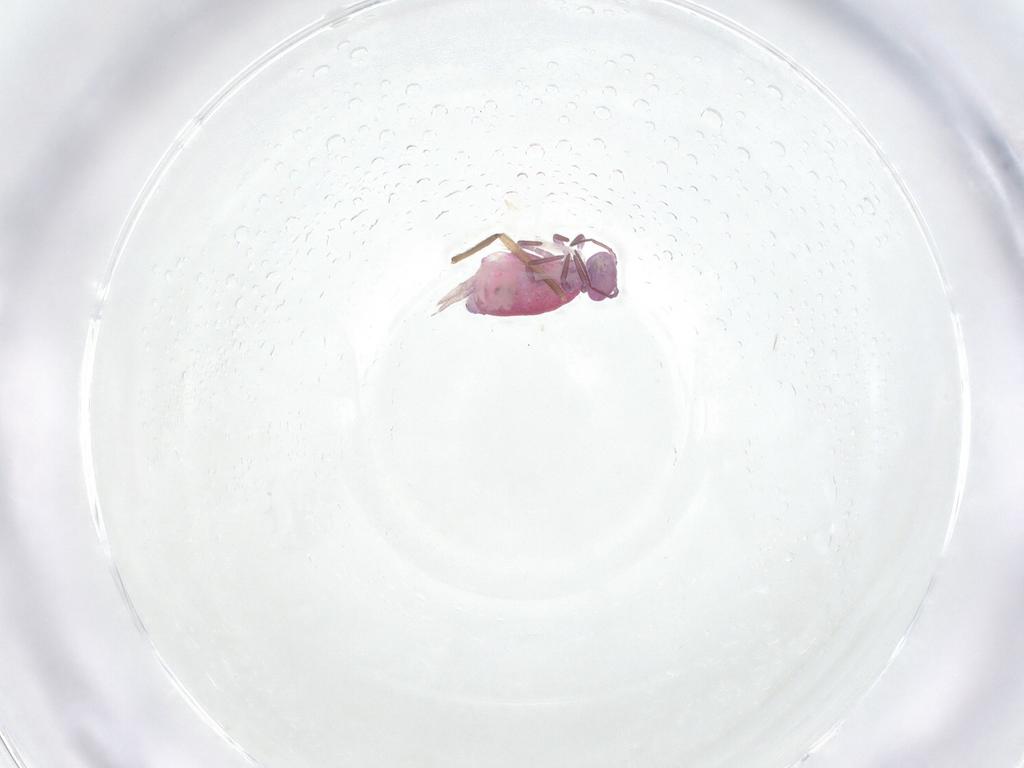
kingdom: Animalia
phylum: Arthropoda
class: Collembola
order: Symphypleona
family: Sminthuridae
